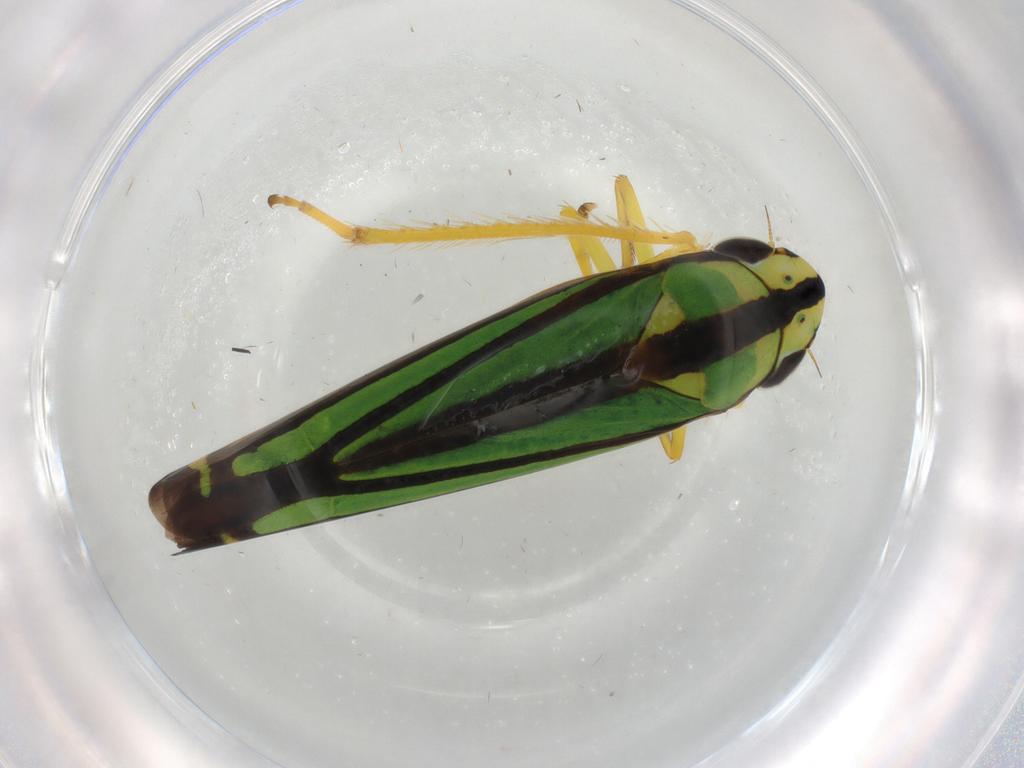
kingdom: Animalia
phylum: Arthropoda
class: Insecta
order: Hemiptera
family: Cicadellidae
